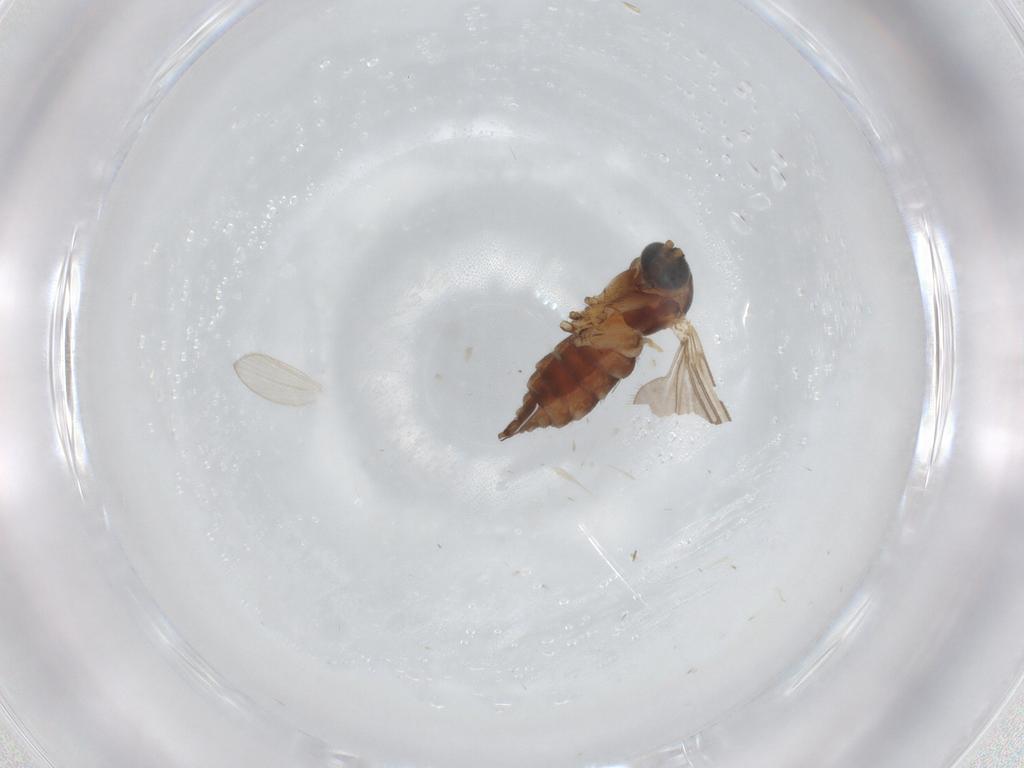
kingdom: Animalia
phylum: Arthropoda
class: Insecta
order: Diptera
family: Sciaridae
